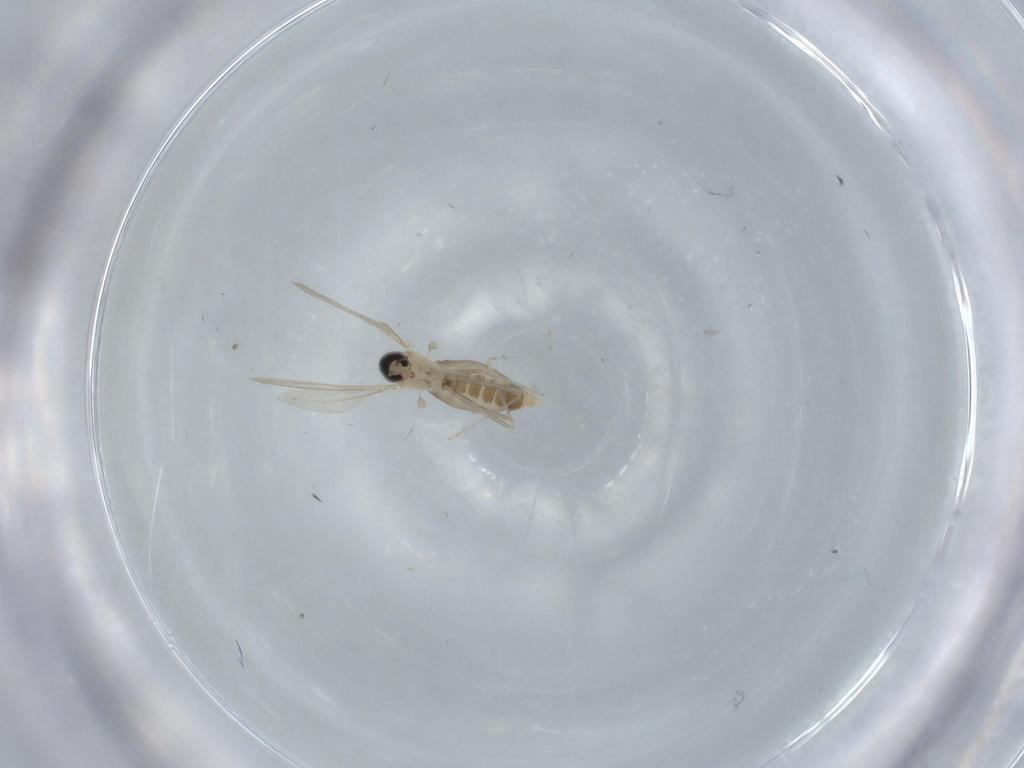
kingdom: Animalia
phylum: Arthropoda
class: Insecta
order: Diptera
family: Cecidomyiidae
